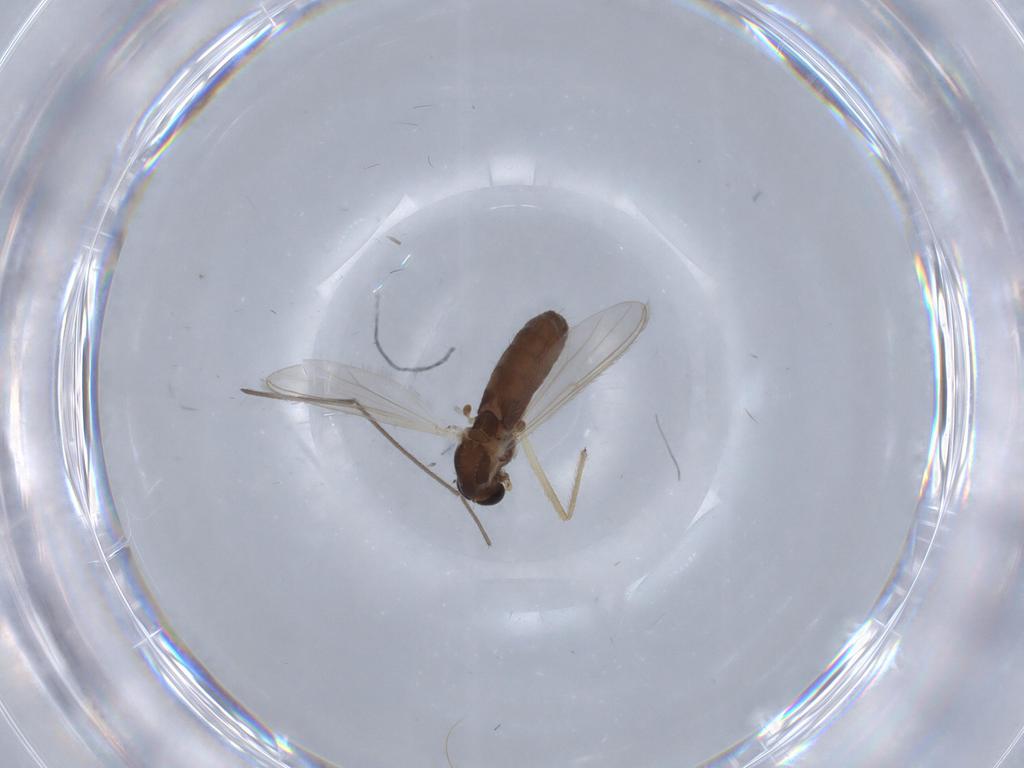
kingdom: Animalia
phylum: Arthropoda
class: Insecta
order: Diptera
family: Chironomidae
